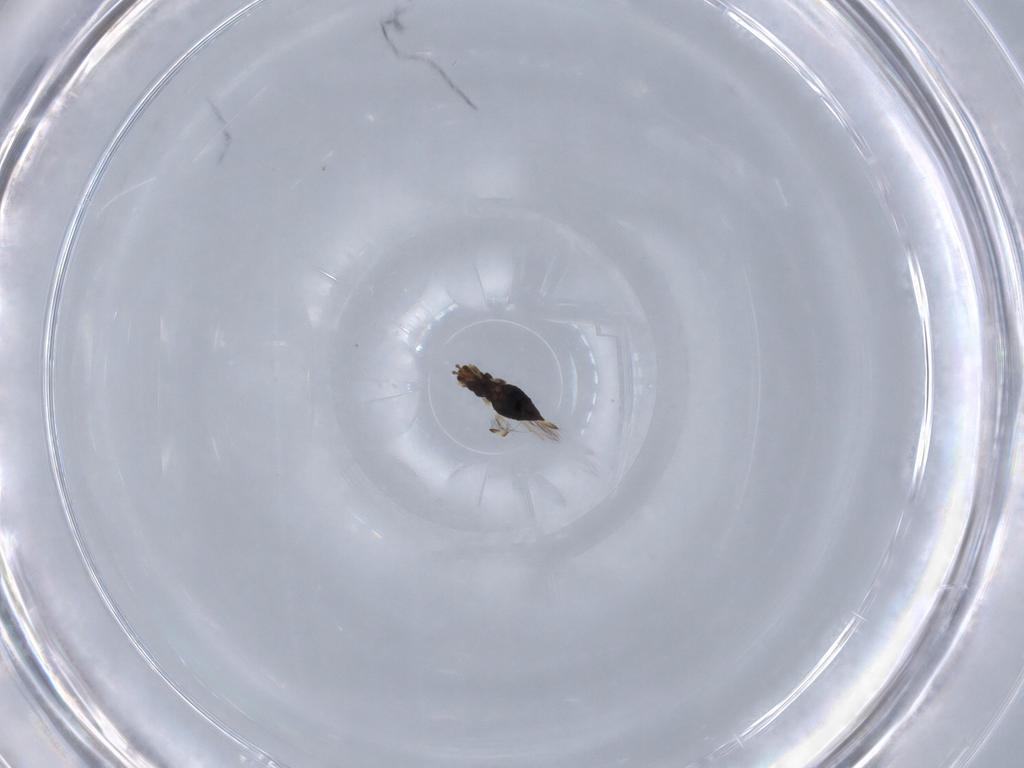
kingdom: Animalia
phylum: Arthropoda
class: Insecta
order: Thysanoptera
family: Thripidae
